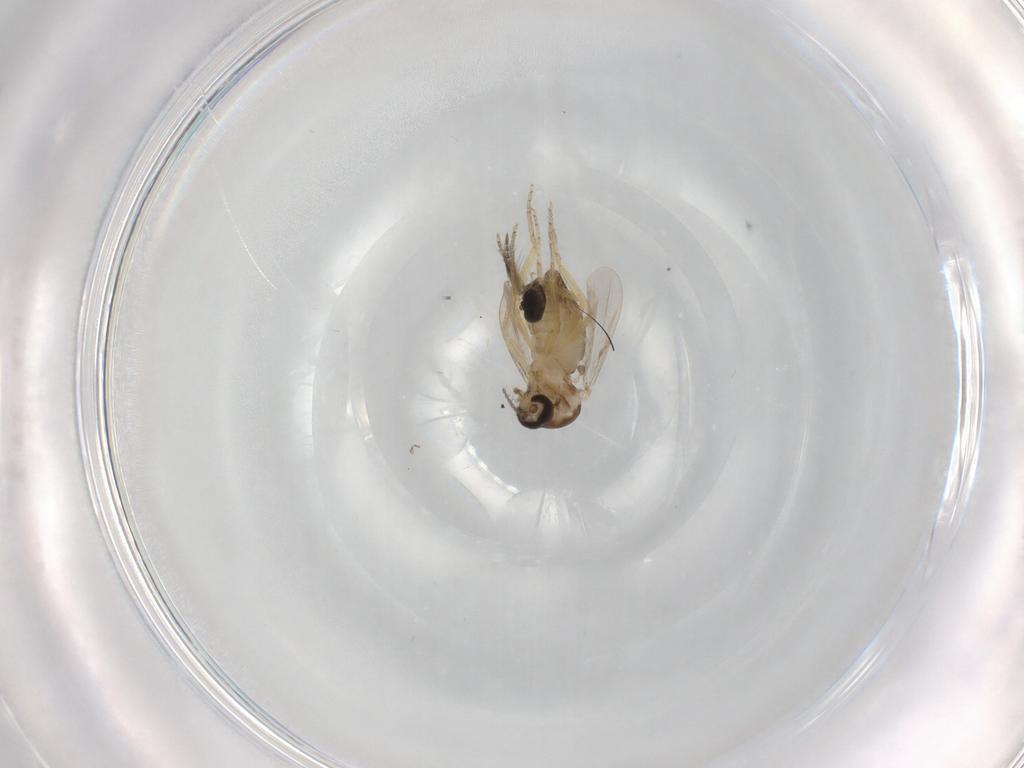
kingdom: Animalia
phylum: Arthropoda
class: Insecta
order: Diptera
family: Ceratopogonidae
